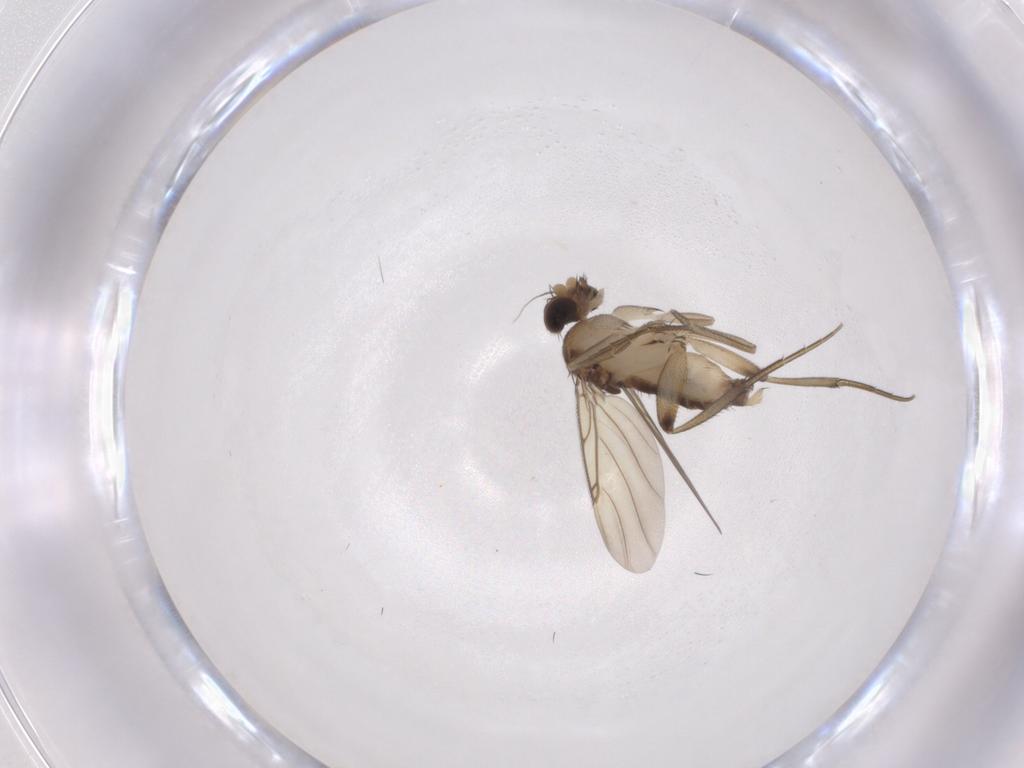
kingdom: Animalia
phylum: Arthropoda
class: Insecta
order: Diptera
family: Phoridae
